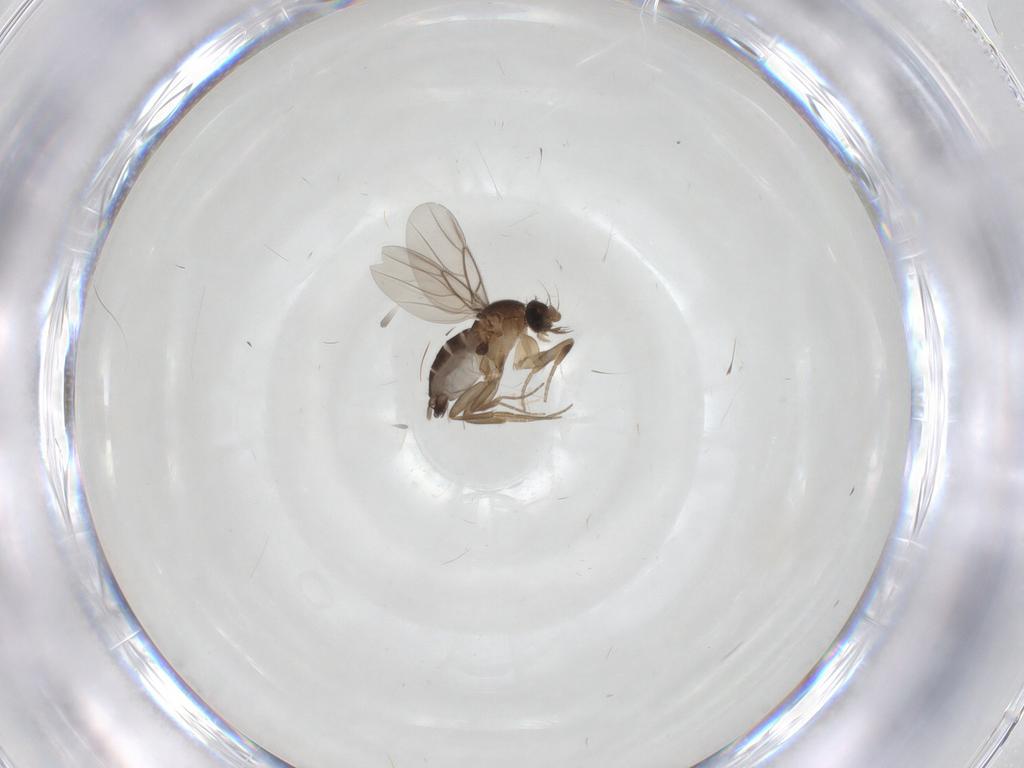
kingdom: Animalia
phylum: Arthropoda
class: Insecta
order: Diptera
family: Phoridae
